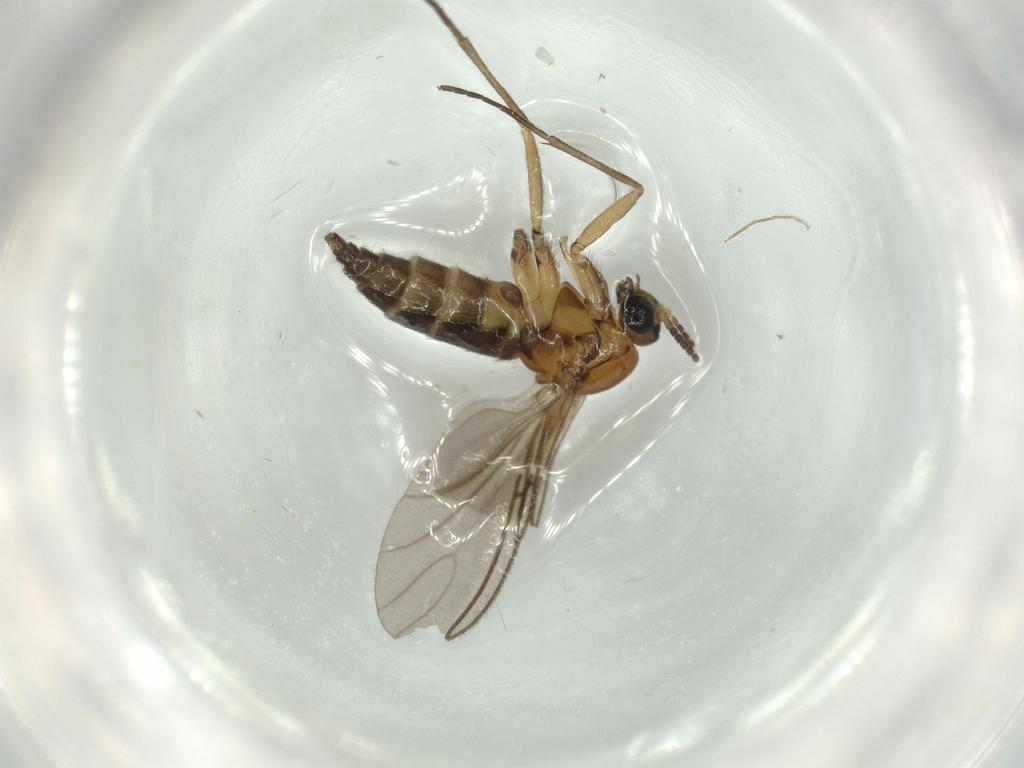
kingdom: Animalia
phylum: Arthropoda
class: Insecta
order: Diptera
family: Sciaridae
